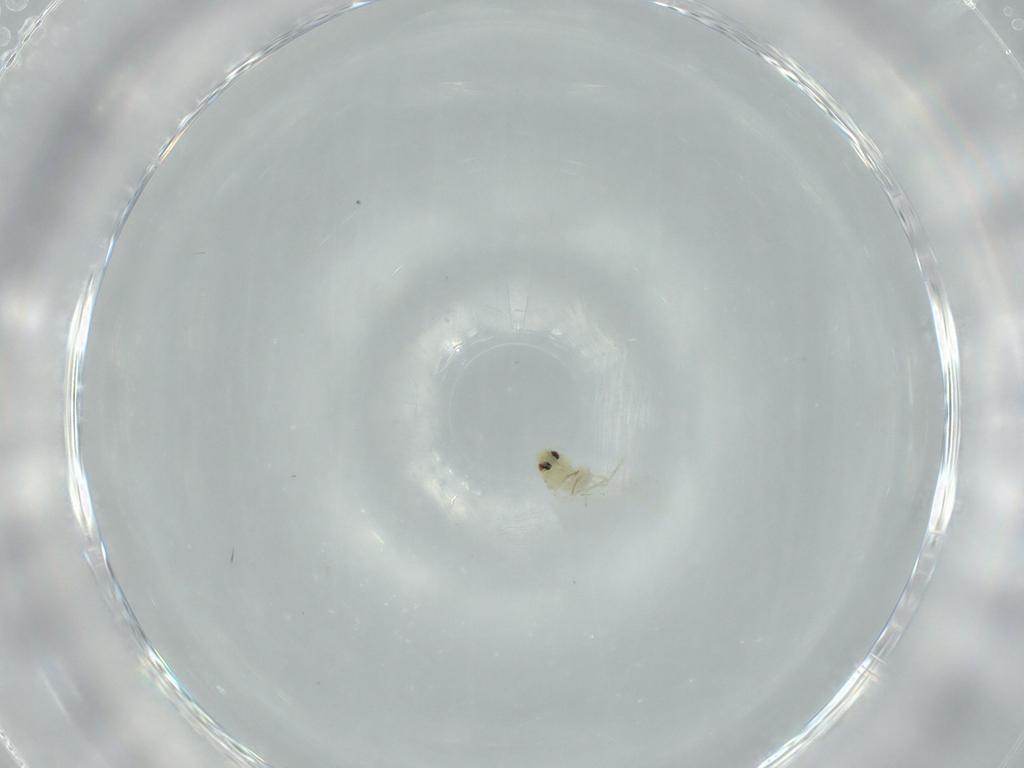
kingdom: Animalia
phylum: Arthropoda
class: Insecta
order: Hemiptera
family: Aleyrodidae
